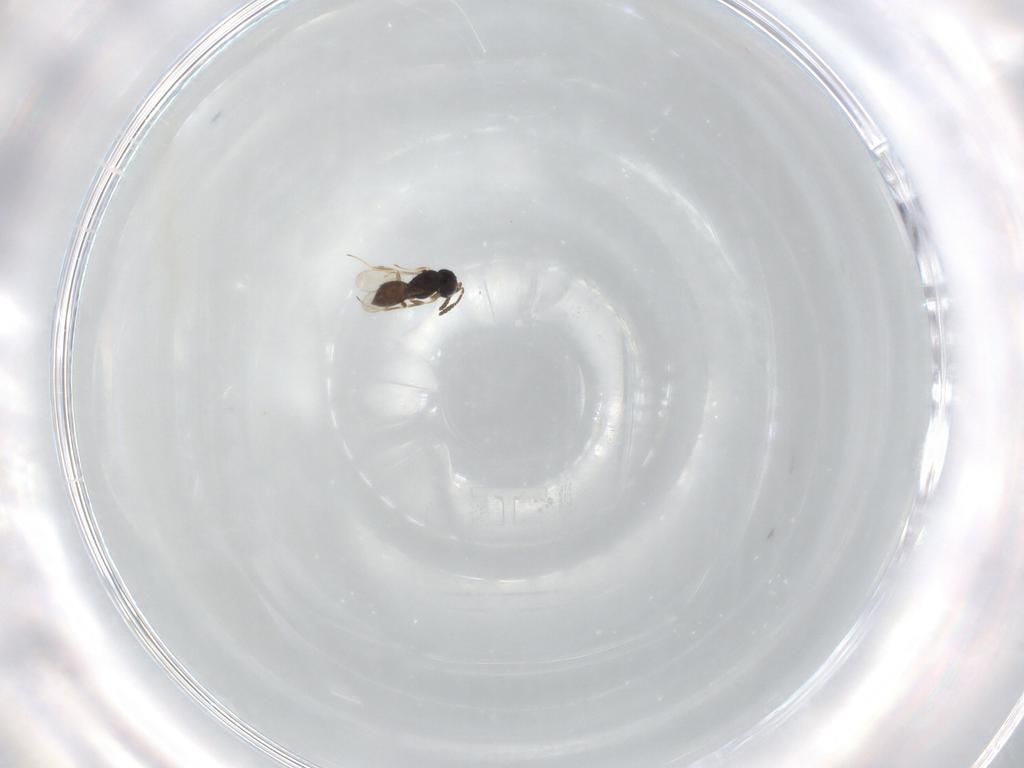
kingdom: Animalia
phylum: Arthropoda
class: Insecta
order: Hymenoptera
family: Scelionidae
